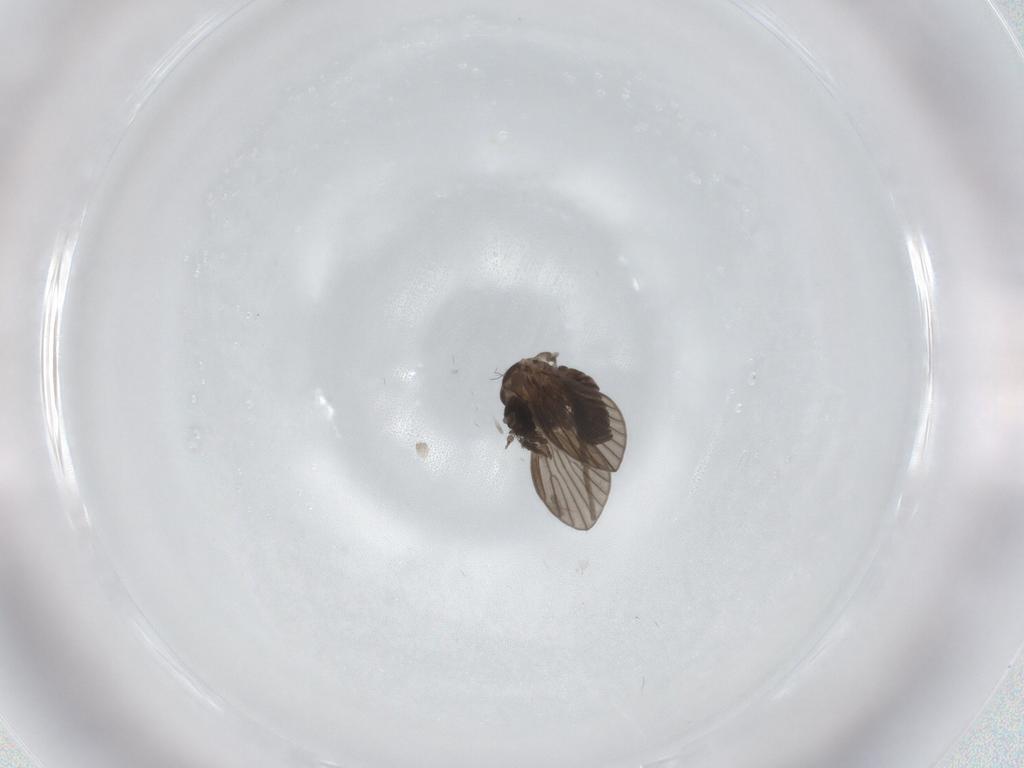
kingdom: Animalia
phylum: Arthropoda
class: Insecta
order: Diptera
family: Psychodidae
